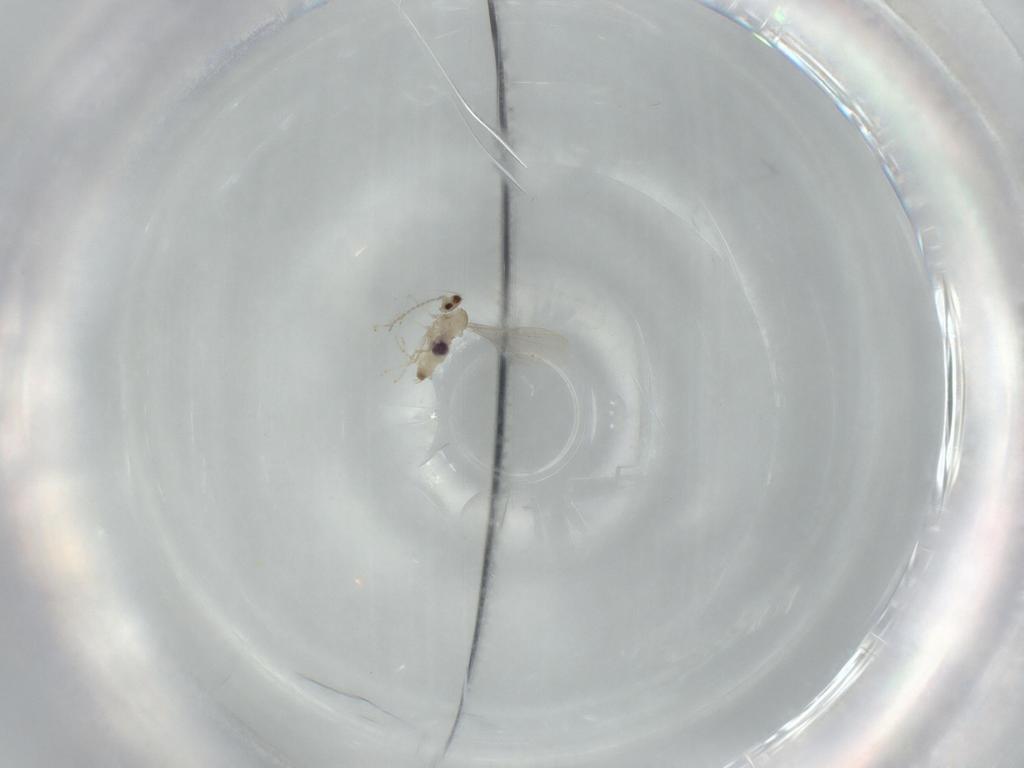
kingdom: Animalia
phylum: Arthropoda
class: Insecta
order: Diptera
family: Cecidomyiidae
